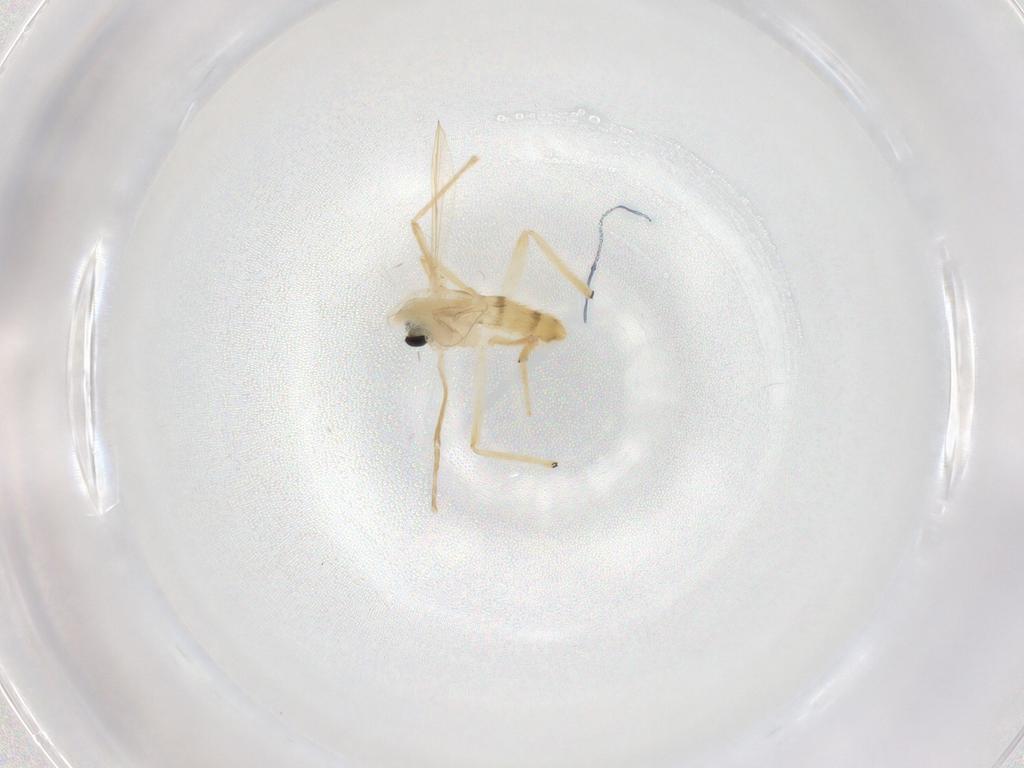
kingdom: Animalia
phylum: Arthropoda
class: Insecta
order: Diptera
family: Chironomidae
